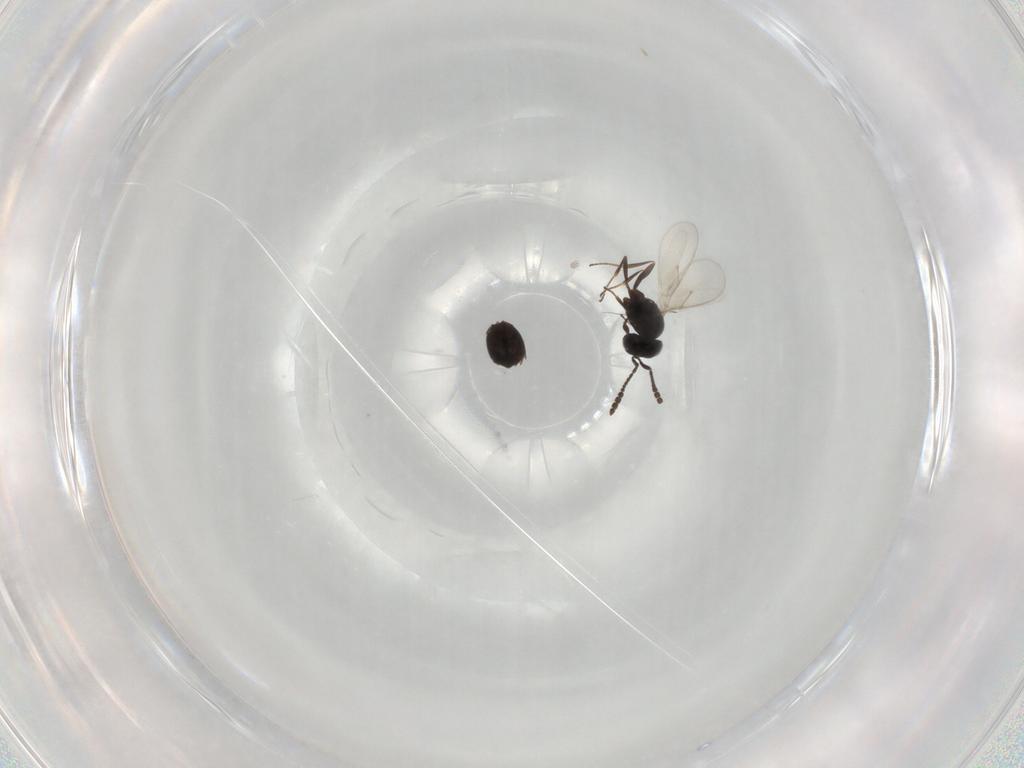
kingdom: Animalia
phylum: Arthropoda
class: Insecta
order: Hymenoptera
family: Scelionidae
